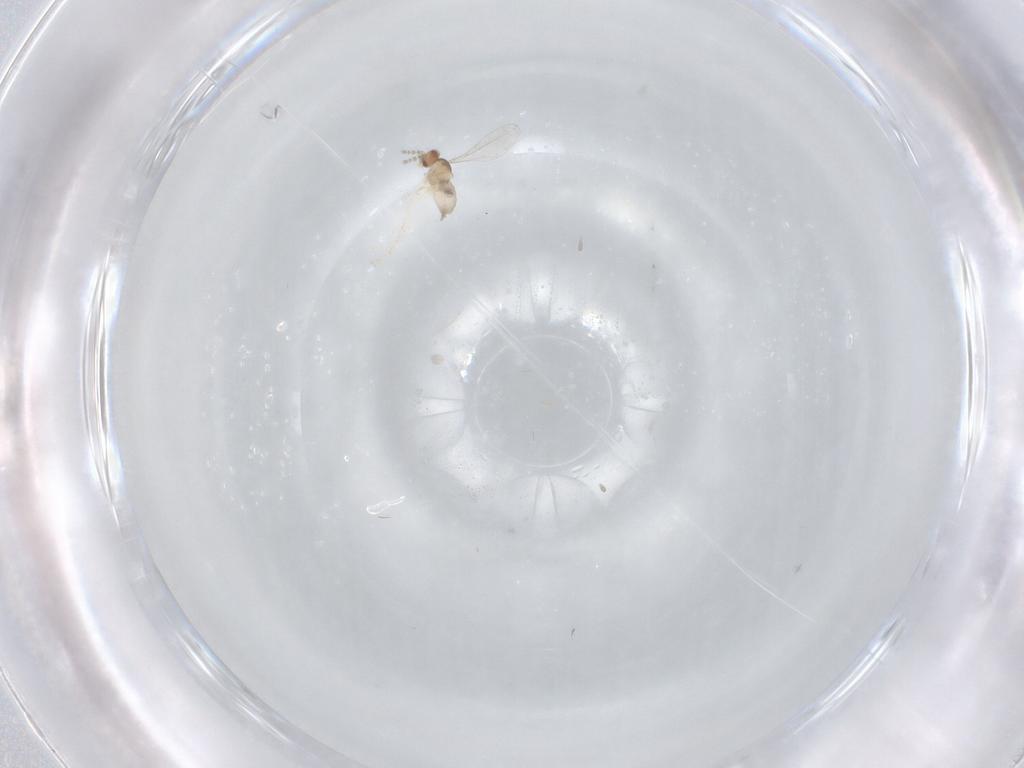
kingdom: Animalia
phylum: Arthropoda
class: Insecta
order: Diptera
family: Cecidomyiidae
